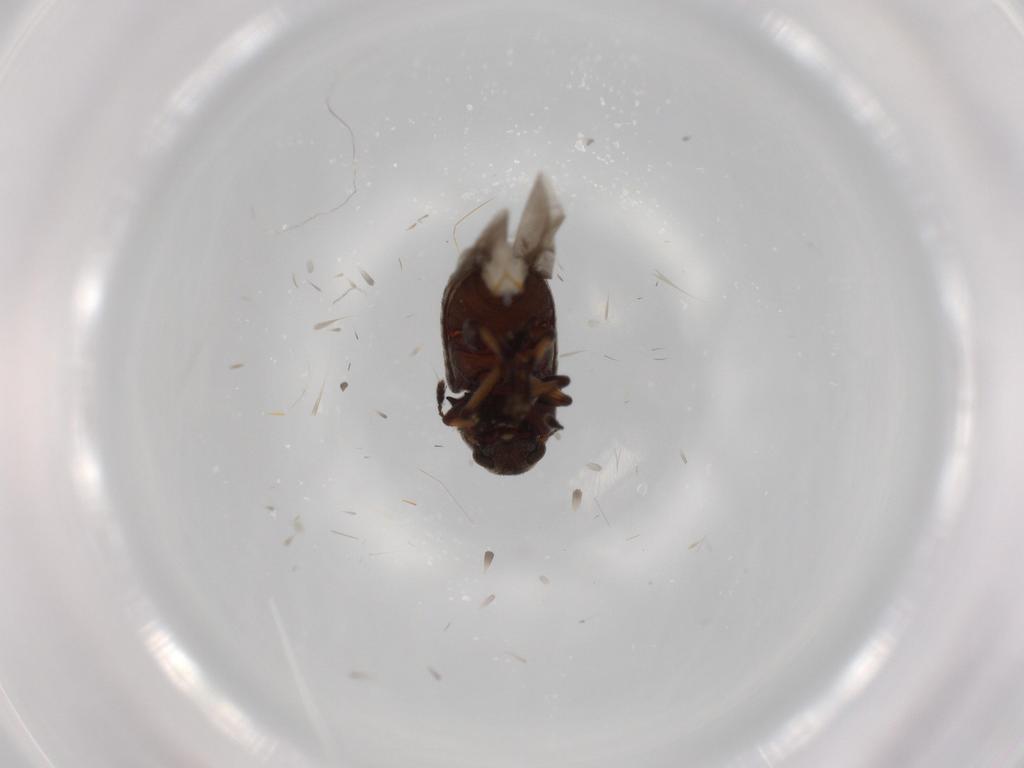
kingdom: Animalia
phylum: Arthropoda
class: Insecta
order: Coleoptera
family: Anthribidae
